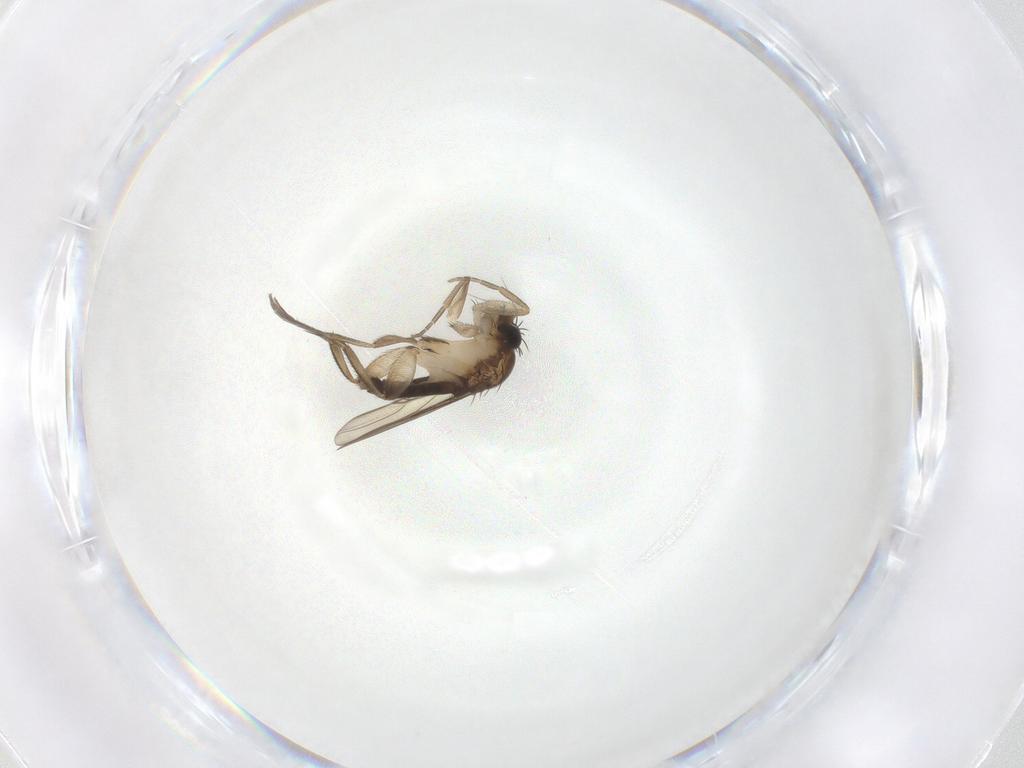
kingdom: Animalia
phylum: Arthropoda
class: Insecta
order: Diptera
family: Phoridae
